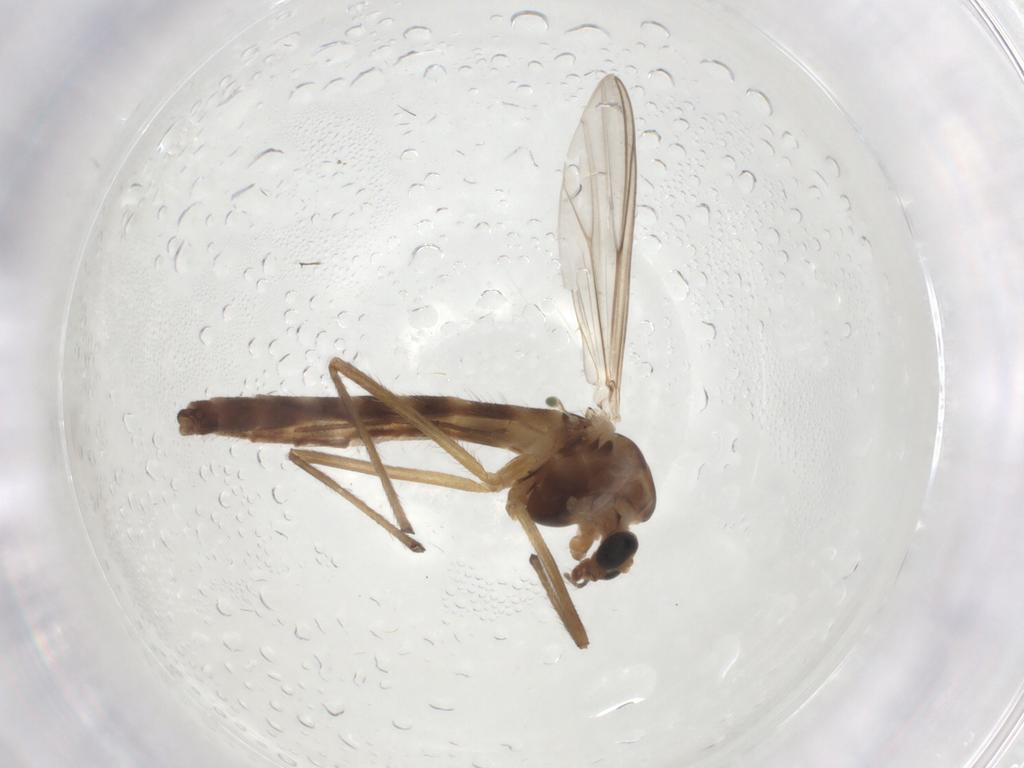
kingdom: Animalia
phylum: Arthropoda
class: Insecta
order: Diptera
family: Cecidomyiidae
